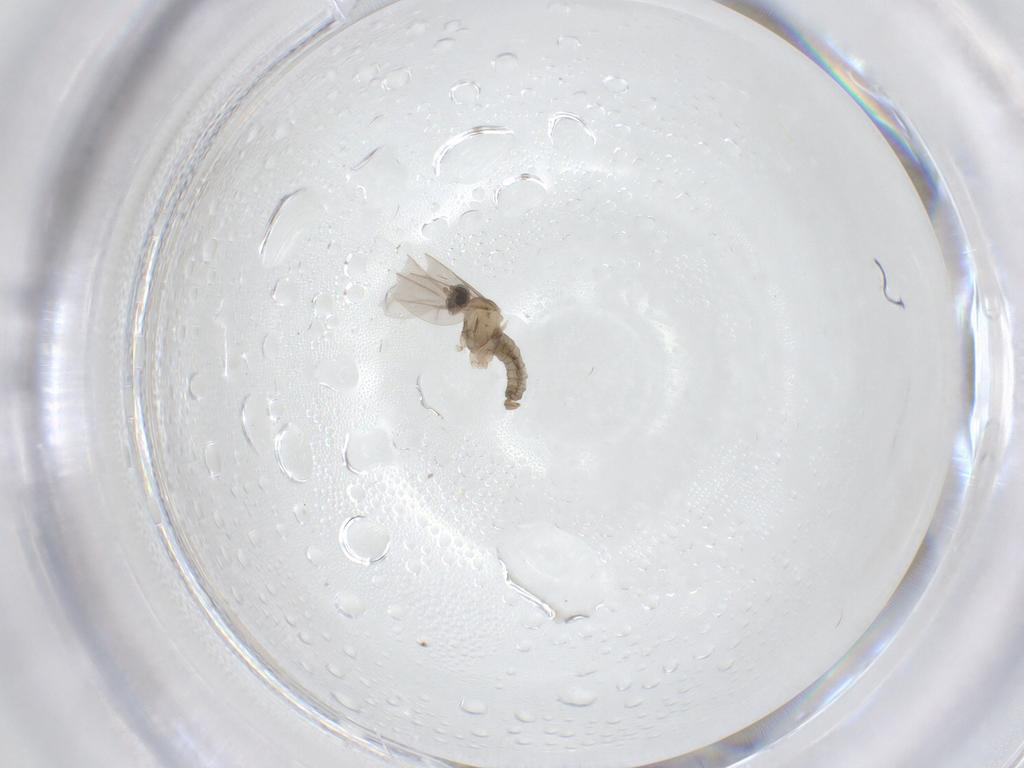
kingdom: Animalia
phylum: Arthropoda
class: Insecta
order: Diptera
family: Cecidomyiidae
